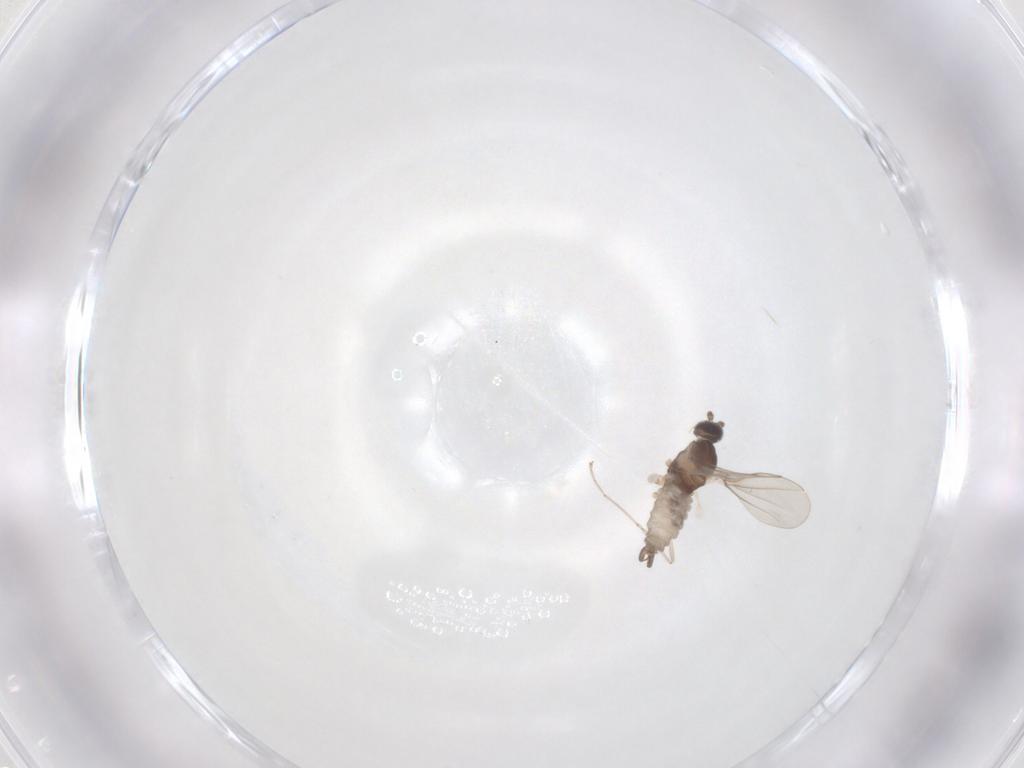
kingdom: Animalia
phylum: Arthropoda
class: Insecta
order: Diptera
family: Cecidomyiidae
